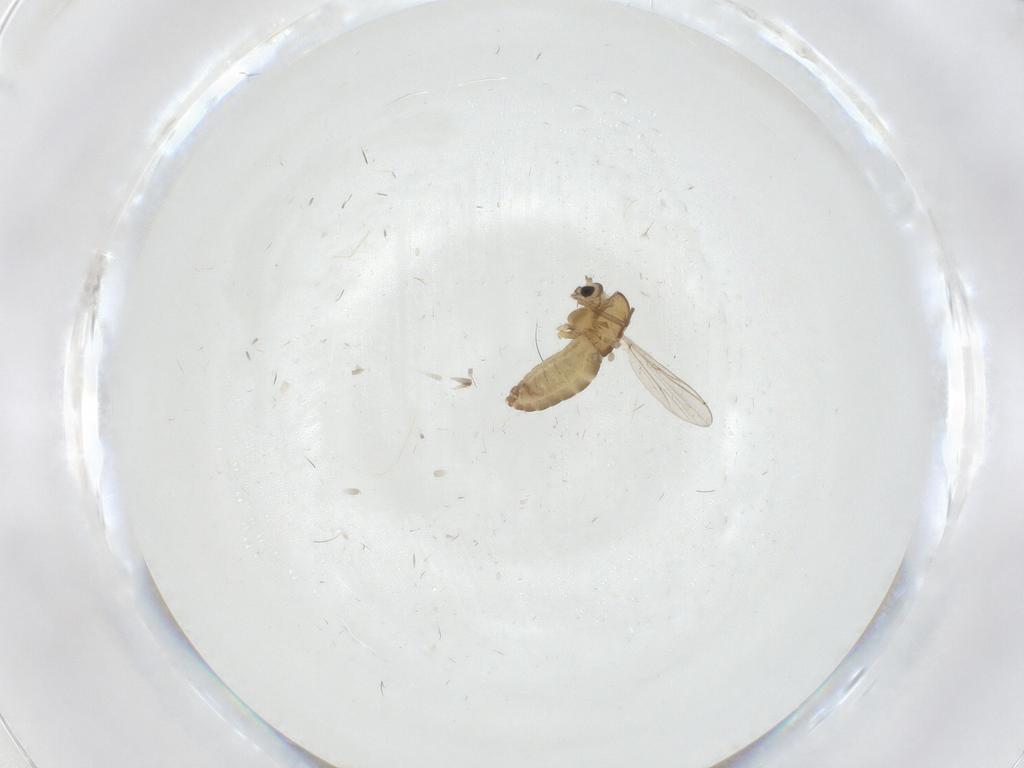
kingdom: Animalia
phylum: Arthropoda
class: Insecta
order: Diptera
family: Chironomidae
